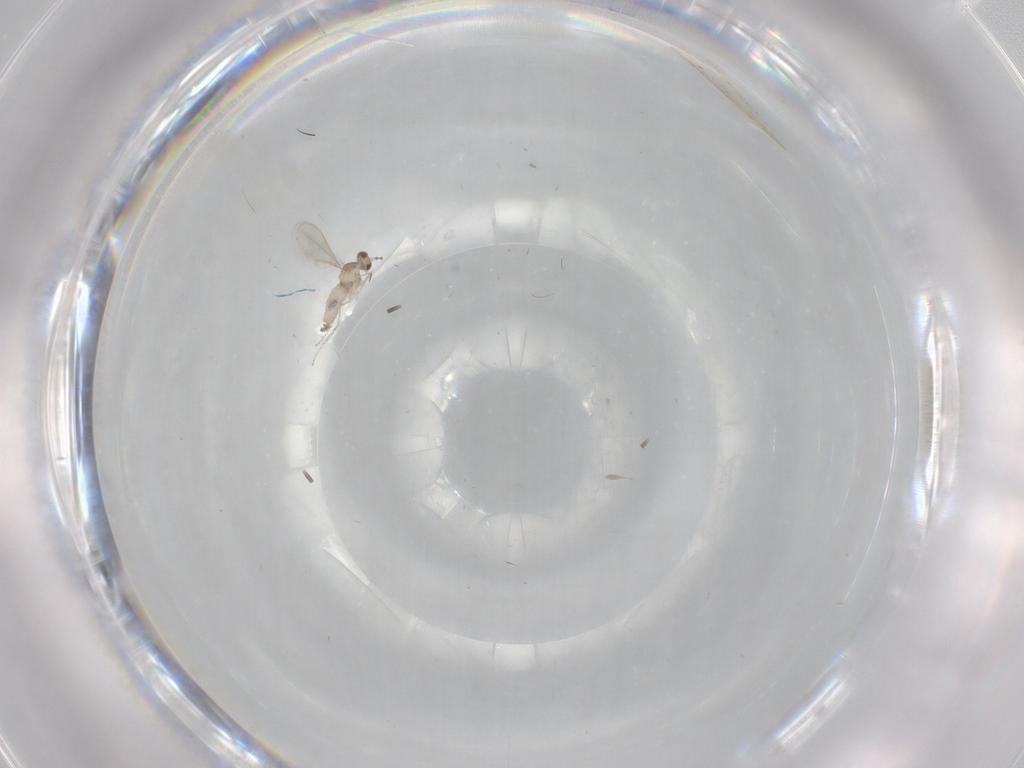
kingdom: Animalia
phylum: Arthropoda
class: Insecta
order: Diptera
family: Cecidomyiidae
